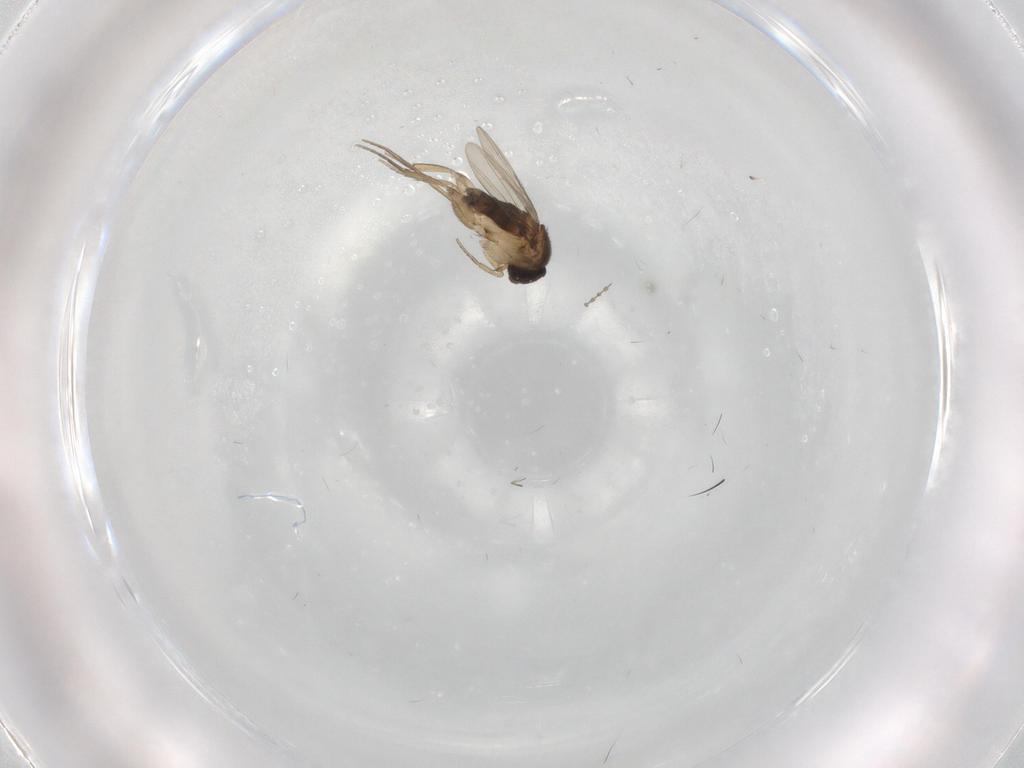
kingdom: Animalia
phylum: Arthropoda
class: Insecta
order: Diptera
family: Phoridae
